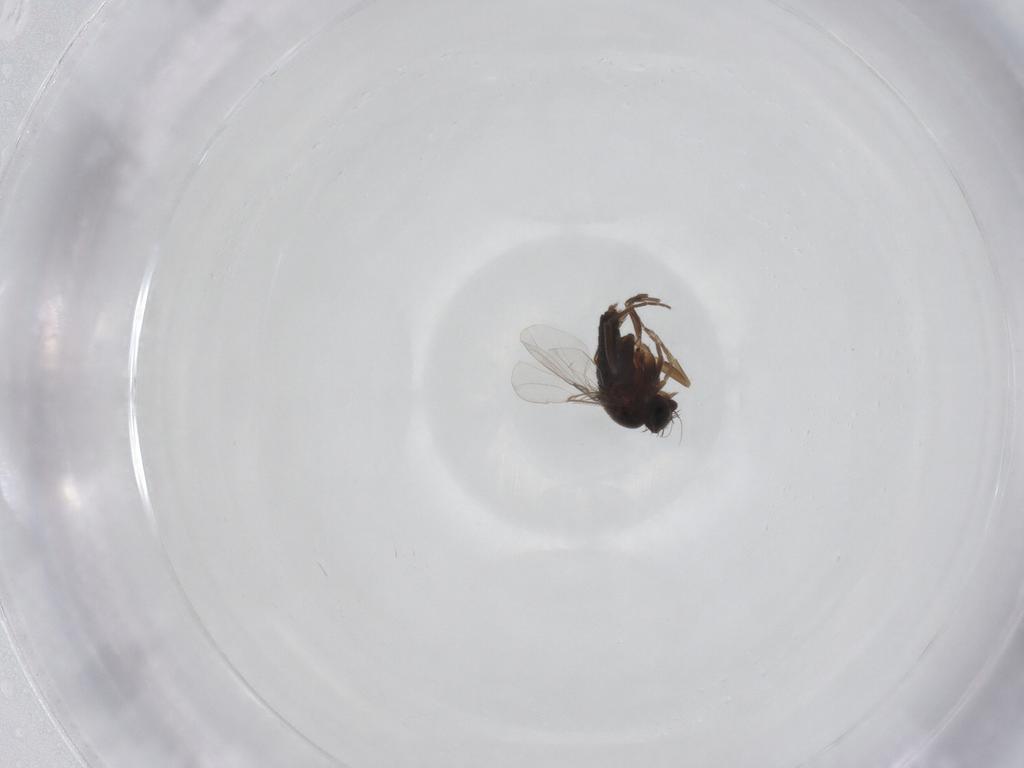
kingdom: Animalia
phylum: Arthropoda
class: Insecta
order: Diptera
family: Phoridae
